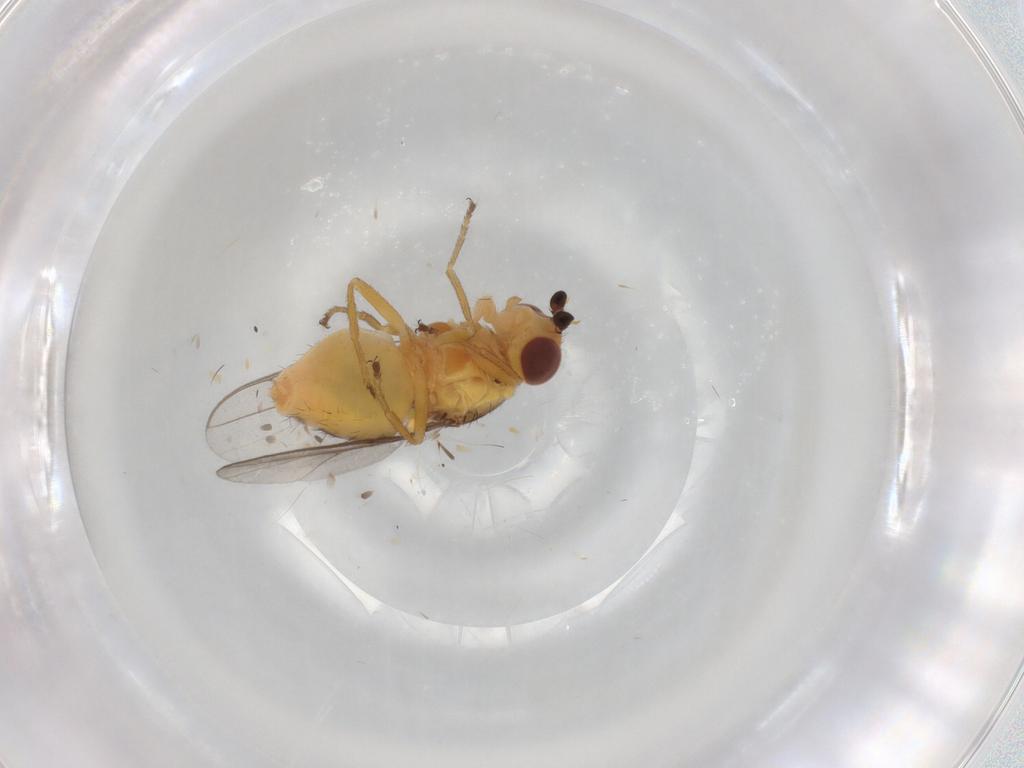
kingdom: Animalia
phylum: Arthropoda
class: Insecta
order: Diptera
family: Chloropidae
